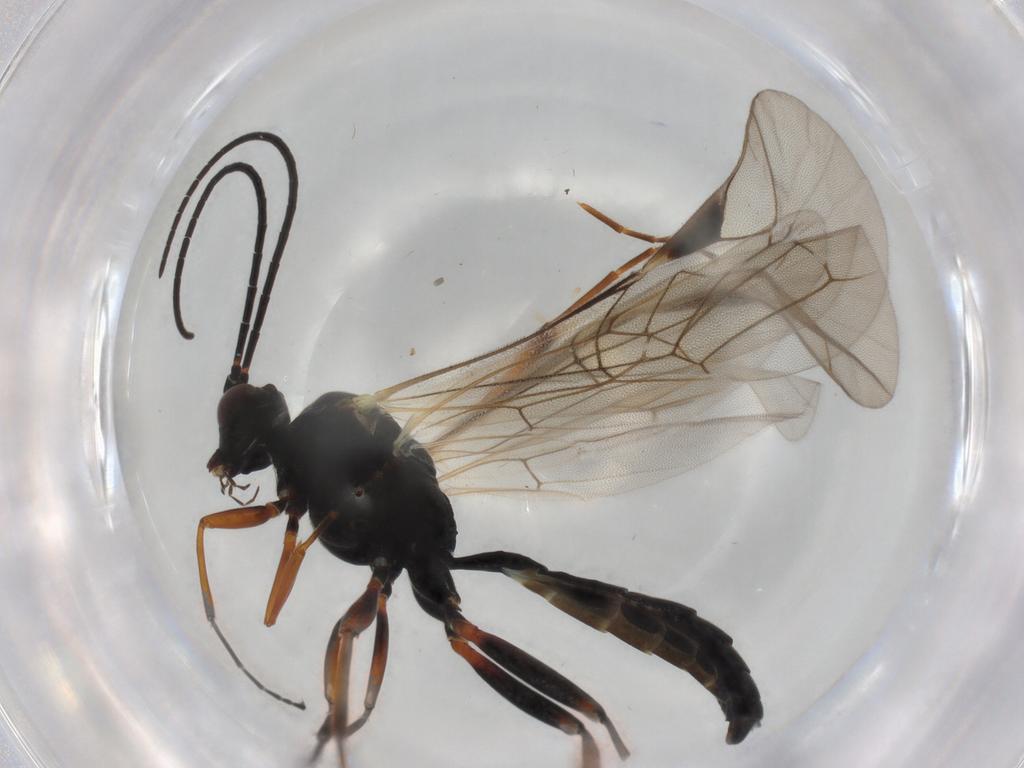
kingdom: Animalia
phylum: Arthropoda
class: Insecta
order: Hymenoptera
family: Ichneumonidae
